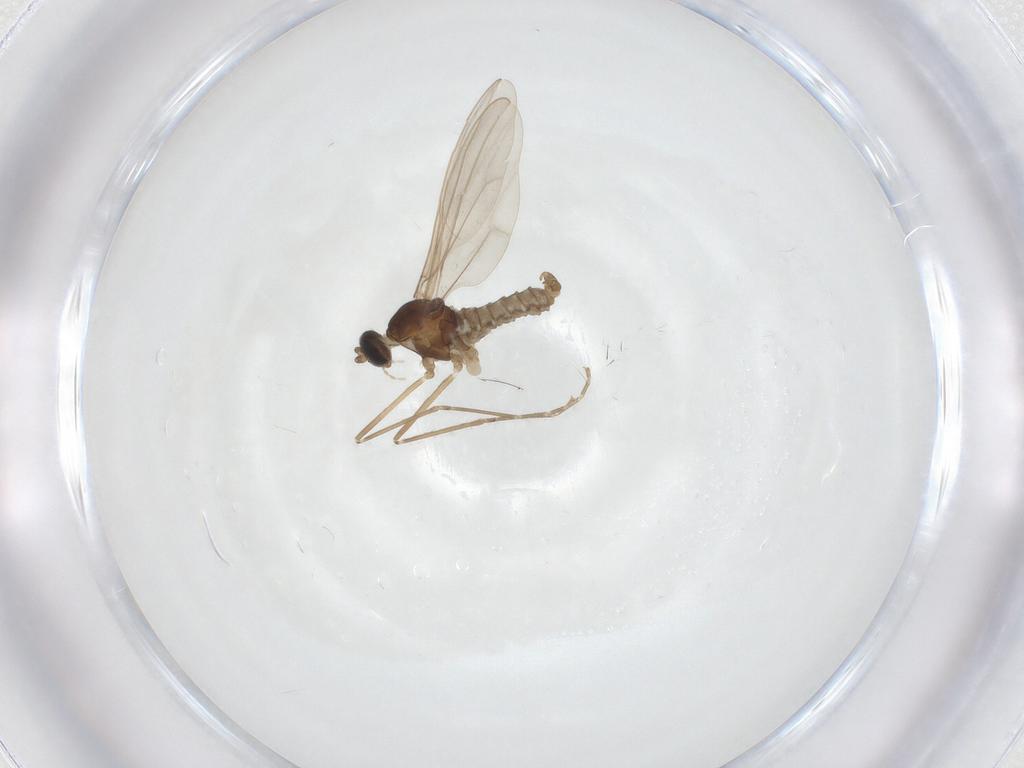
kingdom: Animalia
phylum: Arthropoda
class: Insecta
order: Diptera
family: Cecidomyiidae
